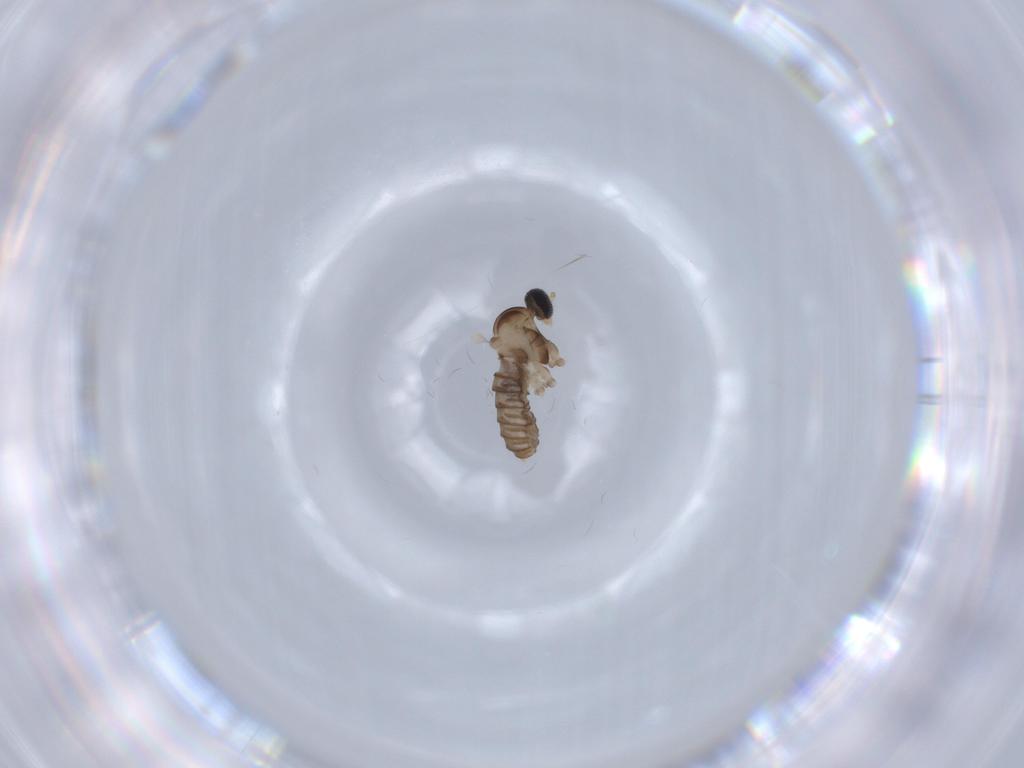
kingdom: Animalia
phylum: Arthropoda
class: Insecta
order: Diptera
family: Cecidomyiidae
